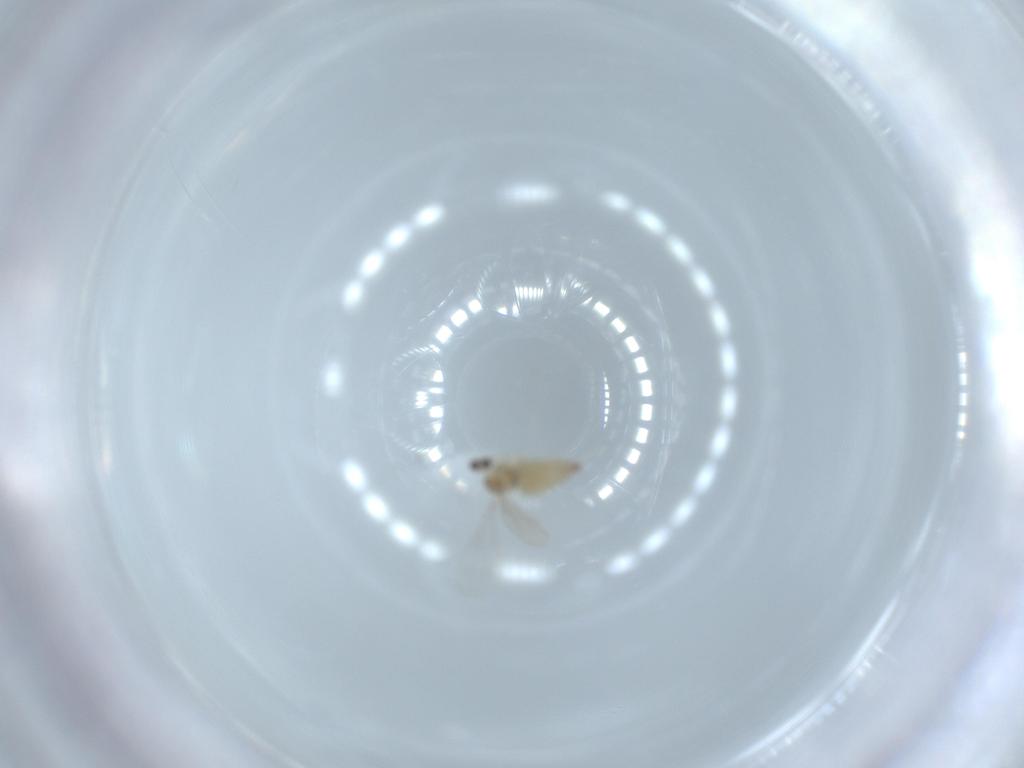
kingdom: Animalia
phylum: Arthropoda
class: Insecta
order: Diptera
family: Cecidomyiidae
